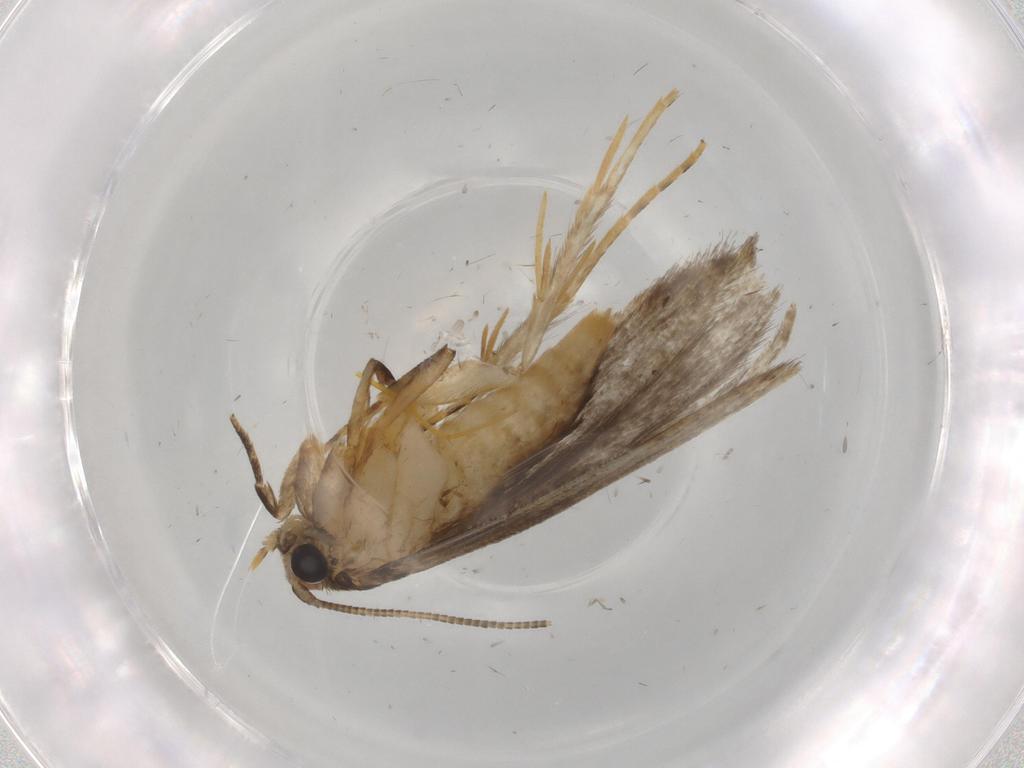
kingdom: Animalia
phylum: Arthropoda
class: Insecta
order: Lepidoptera
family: Tineidae
